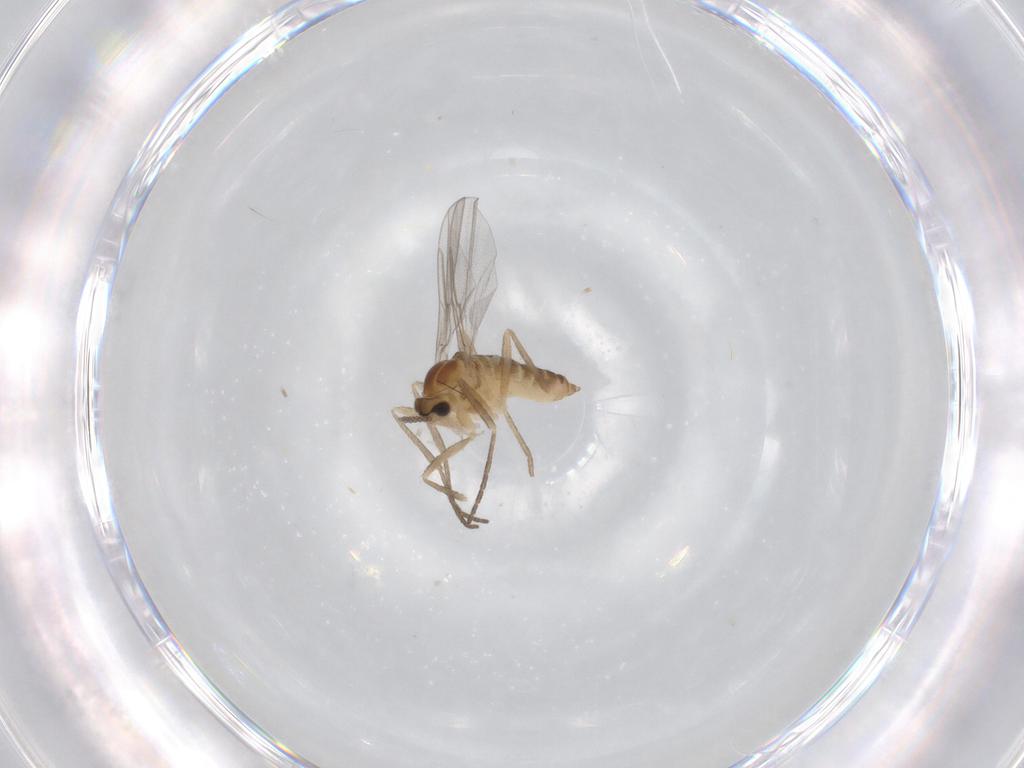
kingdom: Animalia
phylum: Arthropoda
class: Insecta
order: Diptera
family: Cecidomyiidae
